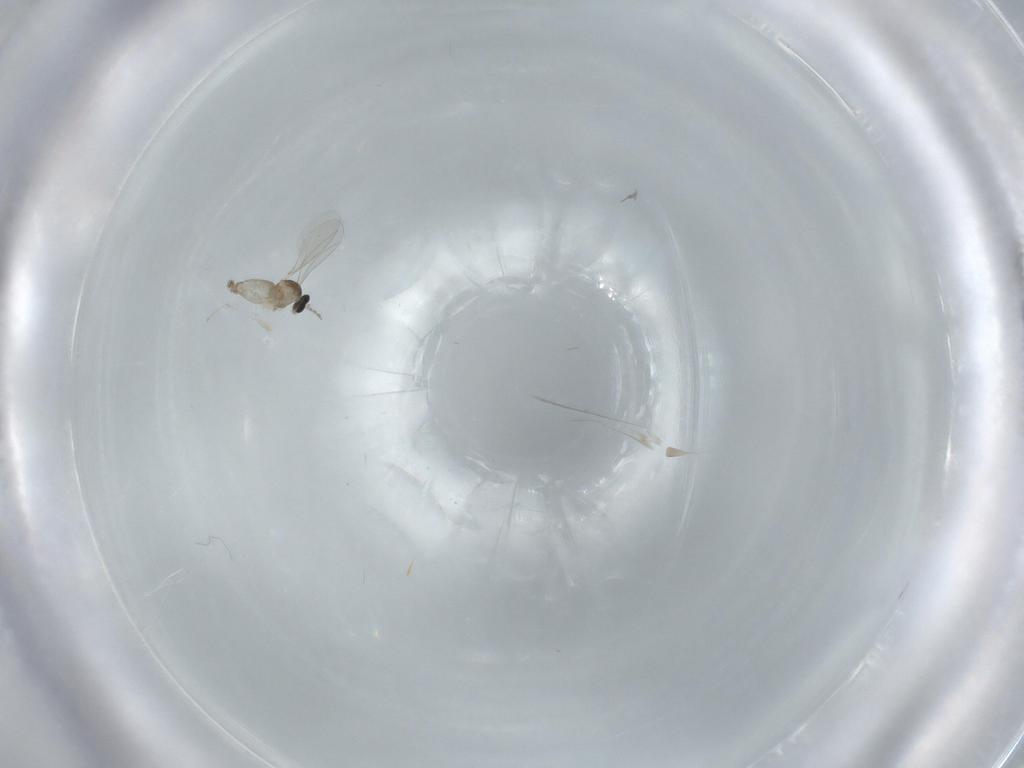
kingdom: Animalia
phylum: Arthropoda
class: Insecta
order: Diptera
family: Cecidomyiidae
